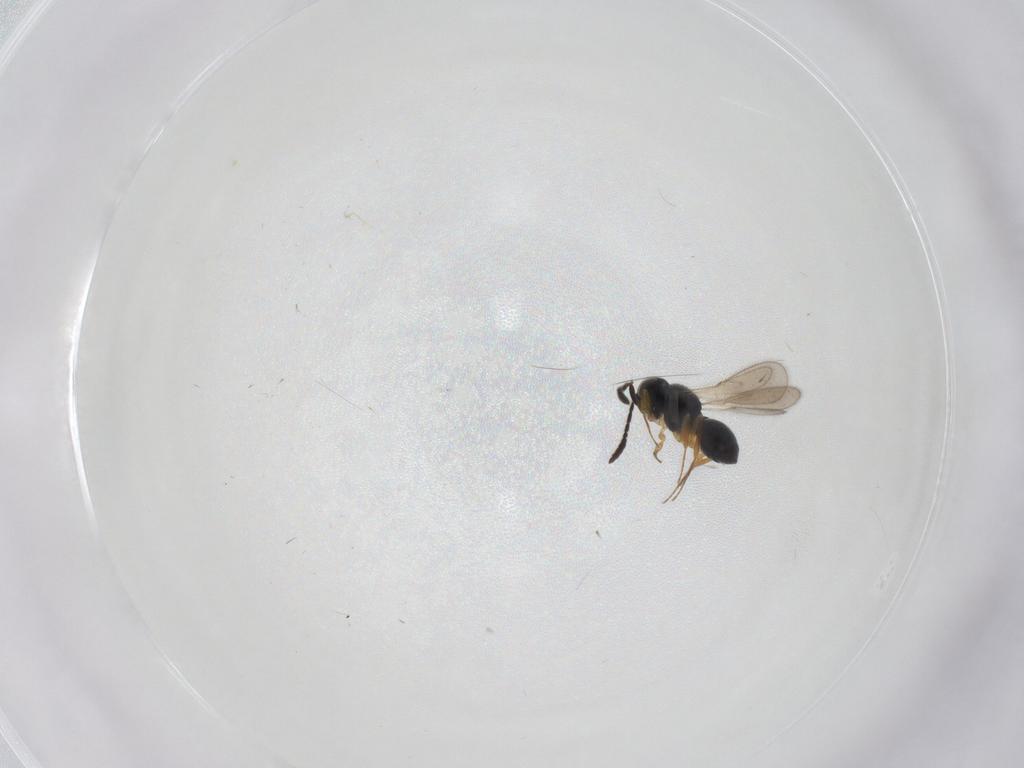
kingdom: Animalia
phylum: Arthropoda
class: Insecta
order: Hymenoptera
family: Scelionidae
